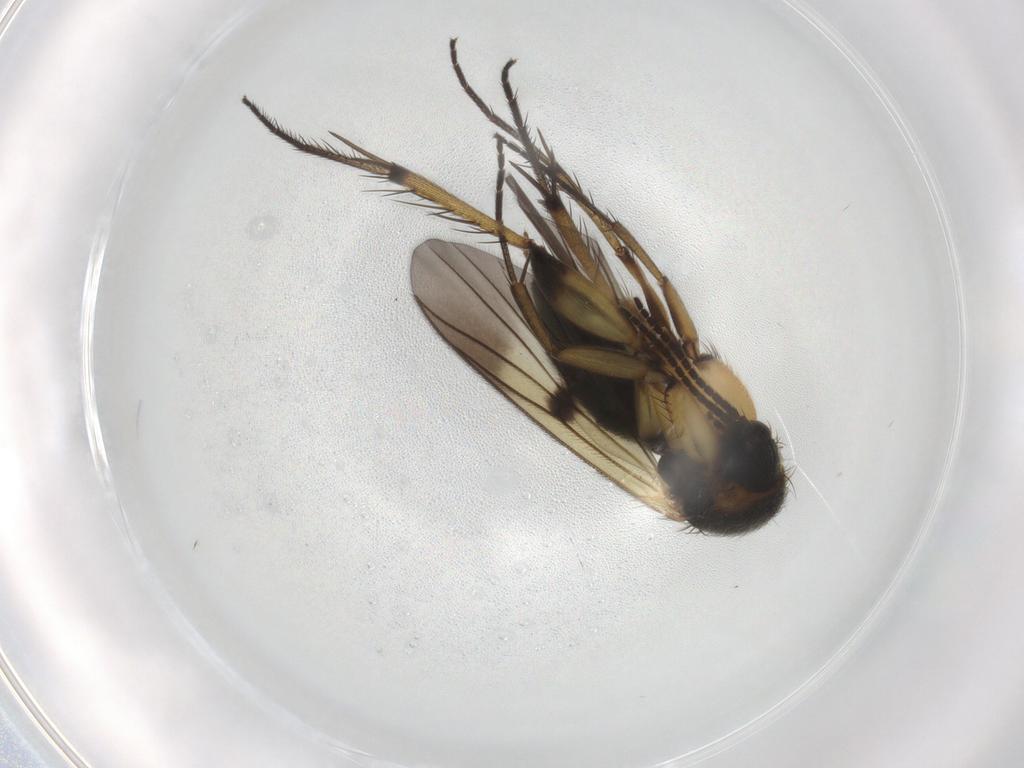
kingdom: Animalia
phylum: Arthropoda
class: Insecta
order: Diptera
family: Mycetophilidae
